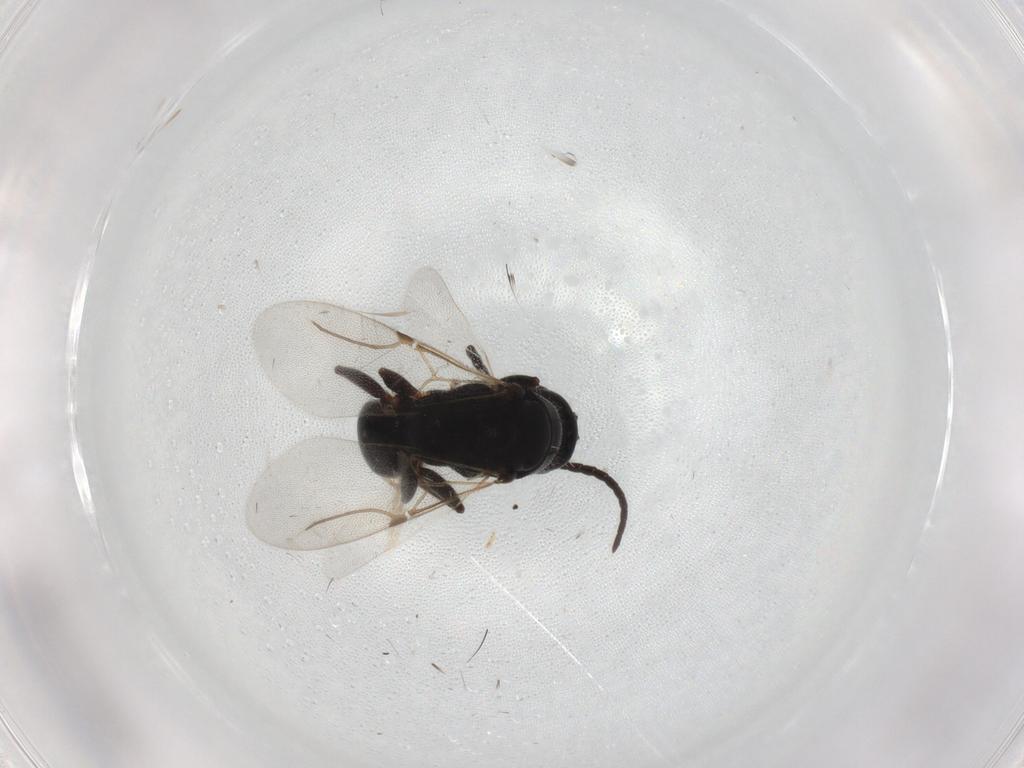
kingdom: Animalia
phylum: Arthropoda
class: Insecta
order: Hymenoptera
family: Bethylidae
